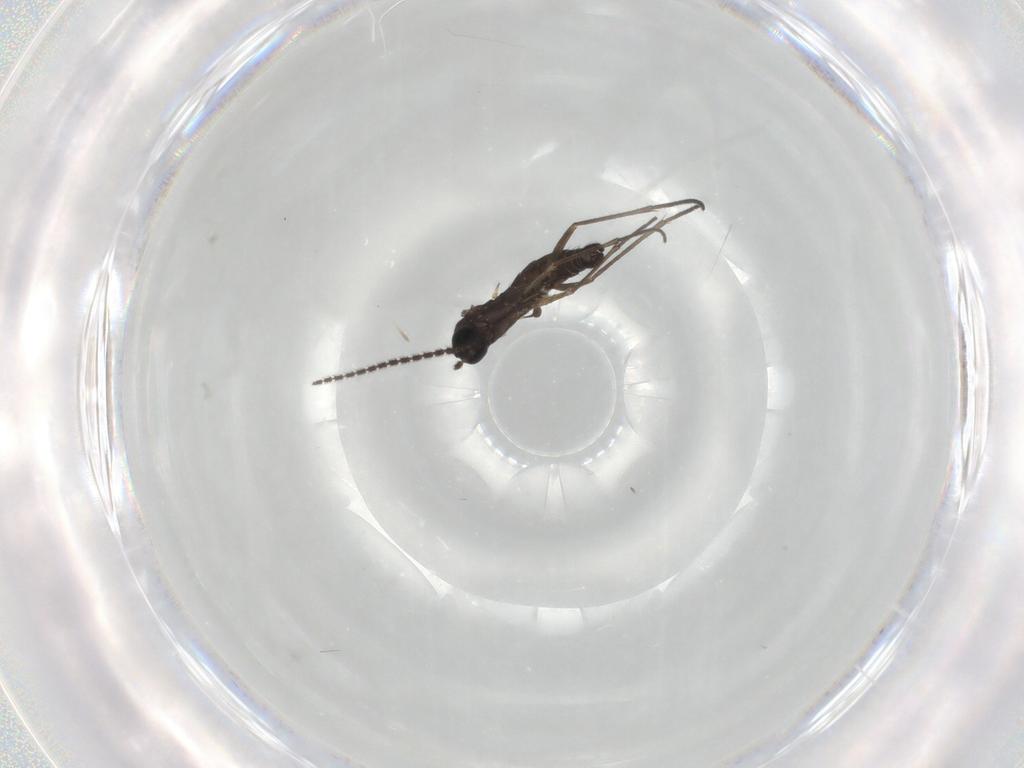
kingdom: Animalia
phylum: Arthropoda
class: Insecta
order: Diptera
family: Sciaridae
